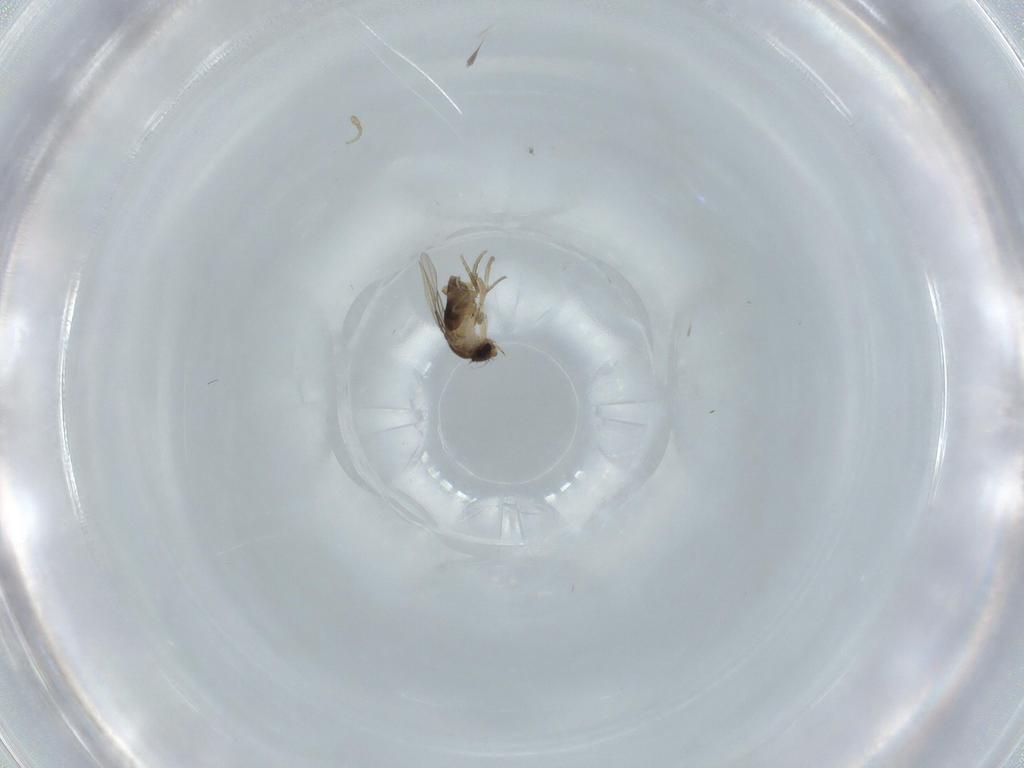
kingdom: Animalia
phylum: Arthropoda
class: Insecta
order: Diptera
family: Phoridae
